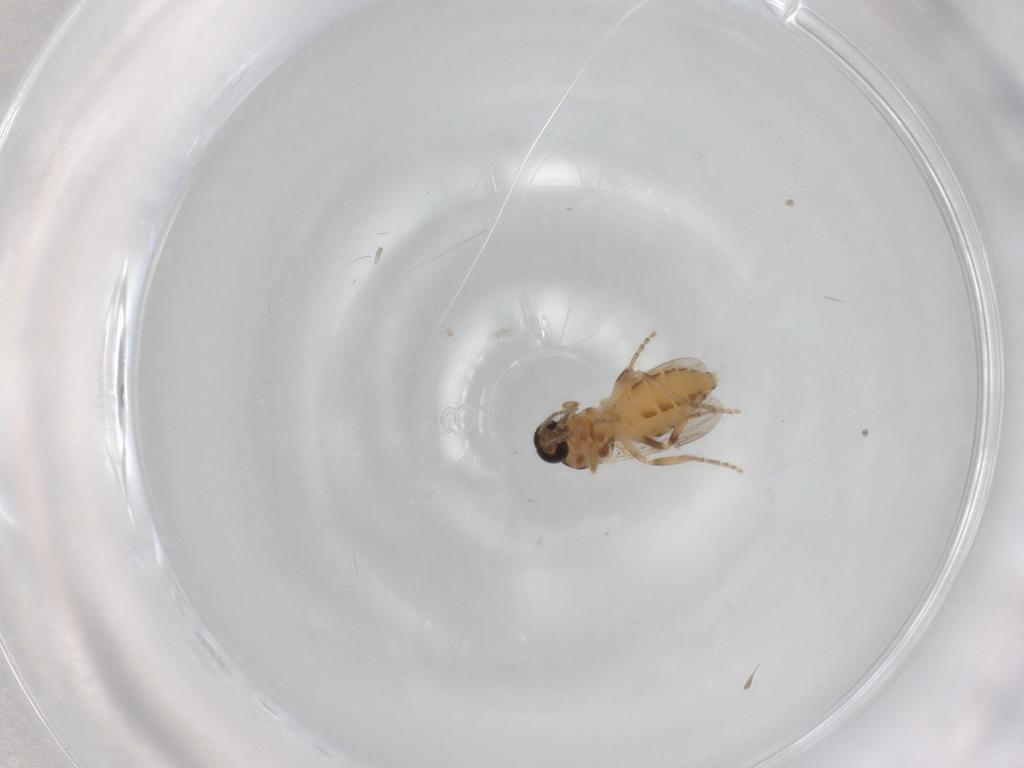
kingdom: Animalia
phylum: Arthropoda
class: Insecta
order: Diptera
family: Ceratopogonidae
